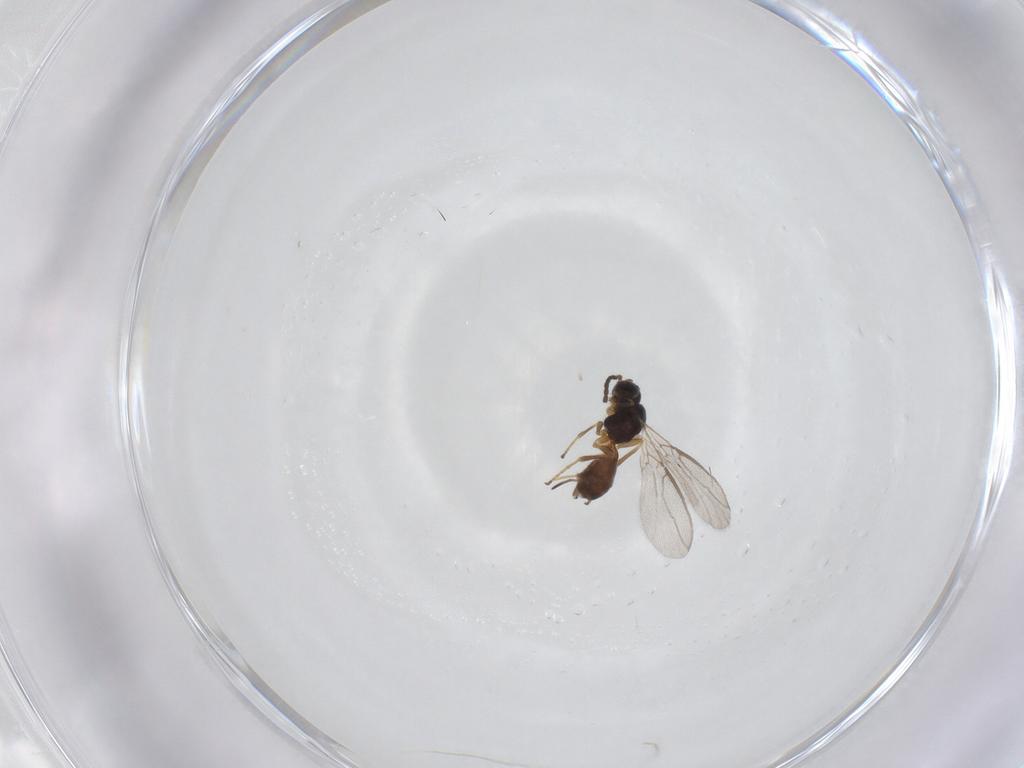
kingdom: Animalia
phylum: Arthropoda
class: Insecta
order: Hymenoptera
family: Braconidae
